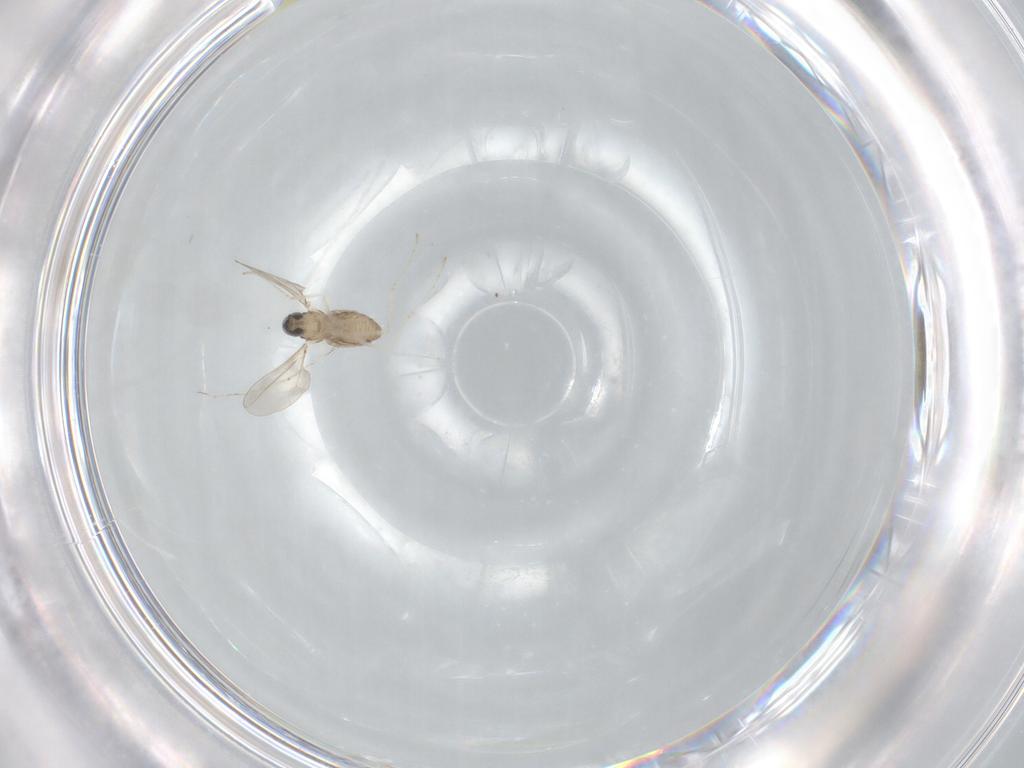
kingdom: Animalia
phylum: Arthropoda
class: Insecta
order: Diptera
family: Cecidomyiidae
